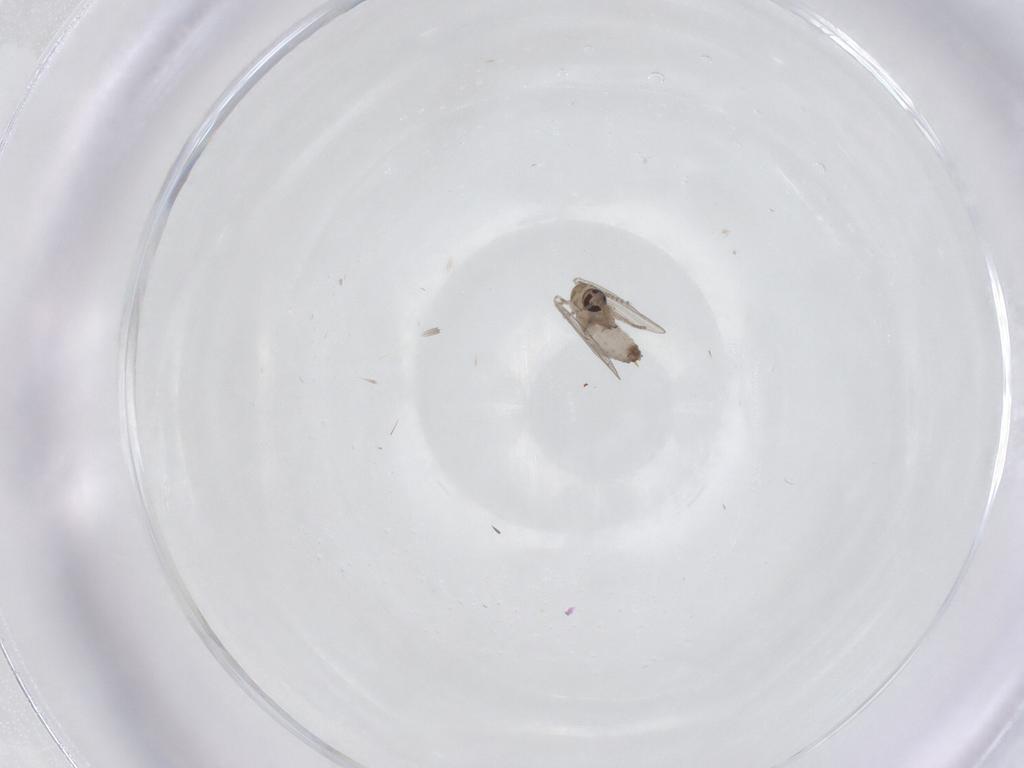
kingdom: Animalia
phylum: Arthropoda
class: Insecta
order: Diptera
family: Psychodidae
